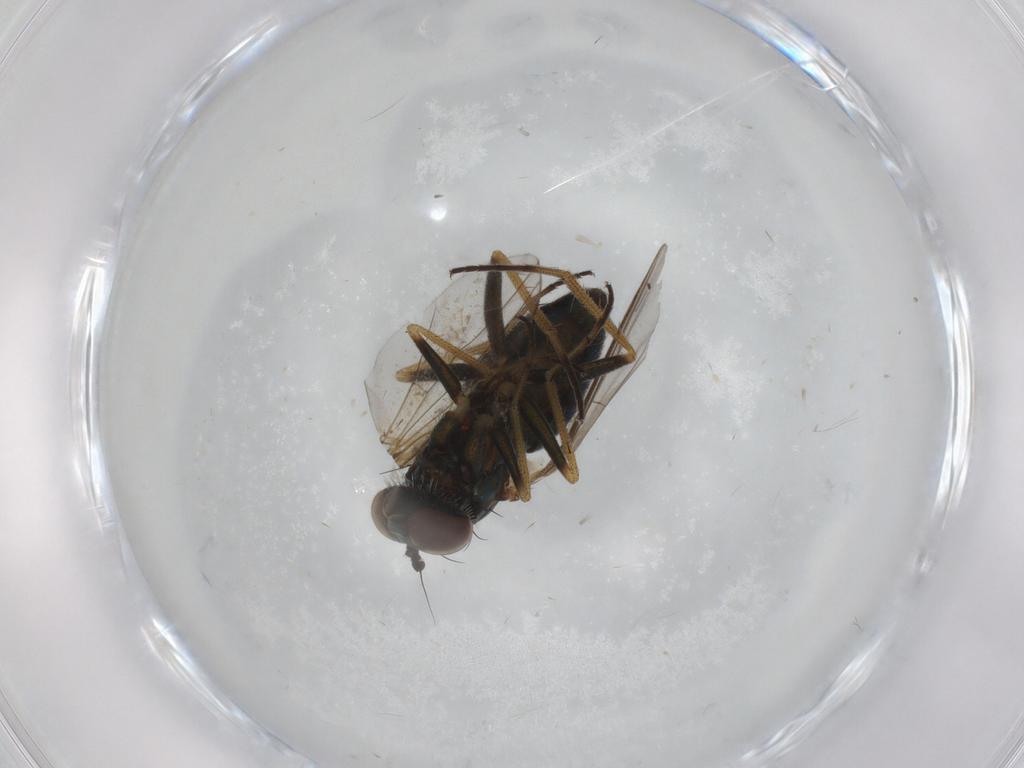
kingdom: Animalia
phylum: Arthropoda
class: Insecta
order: Diptera
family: Ceratopogonidae
